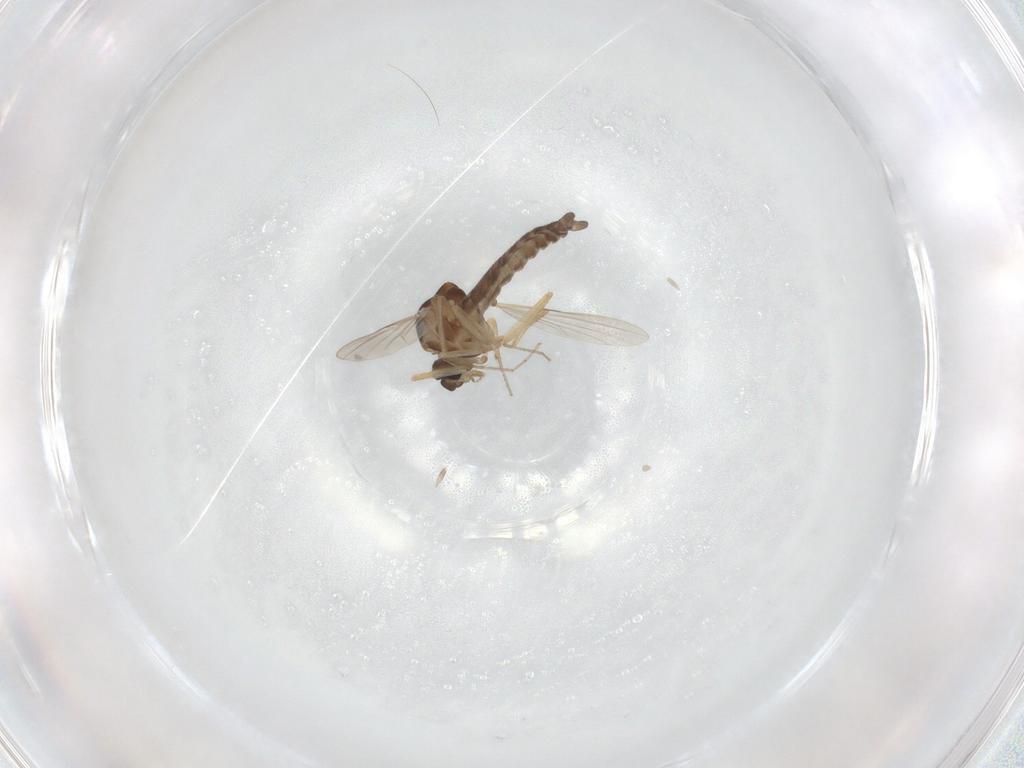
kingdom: Animalia
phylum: Arthropoda
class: Insecta
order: Diptera
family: Ceratopogonidae
